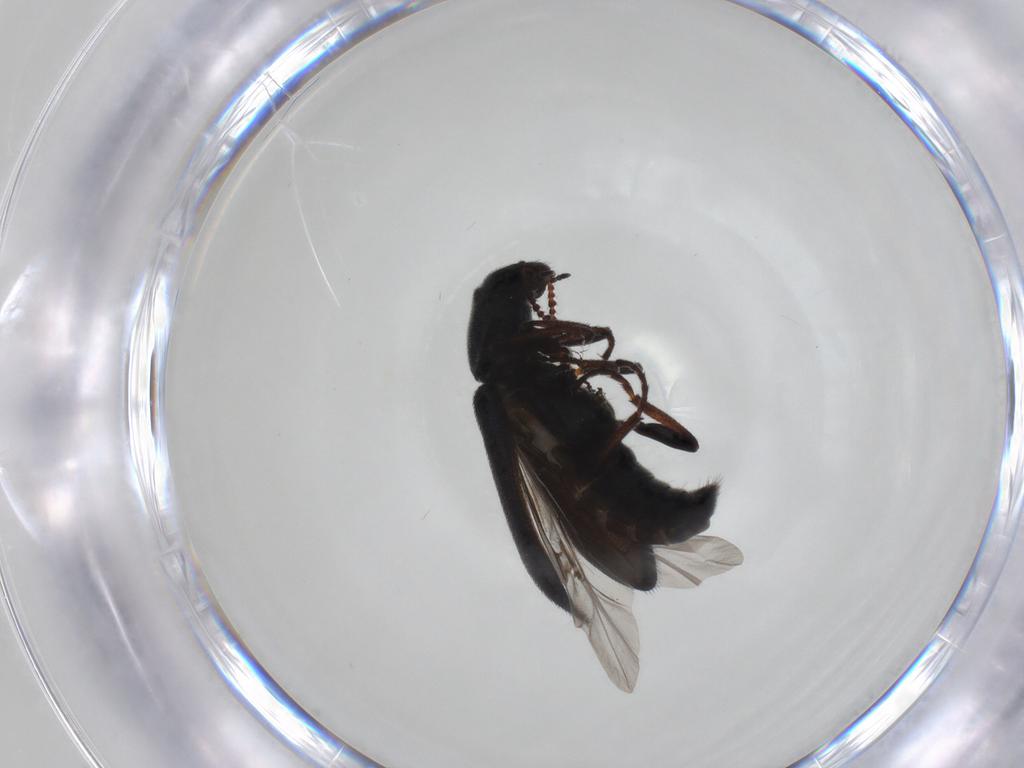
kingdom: Animalia
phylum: Arthropoda
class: Insecta
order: Coleoptera
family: Melyridae
